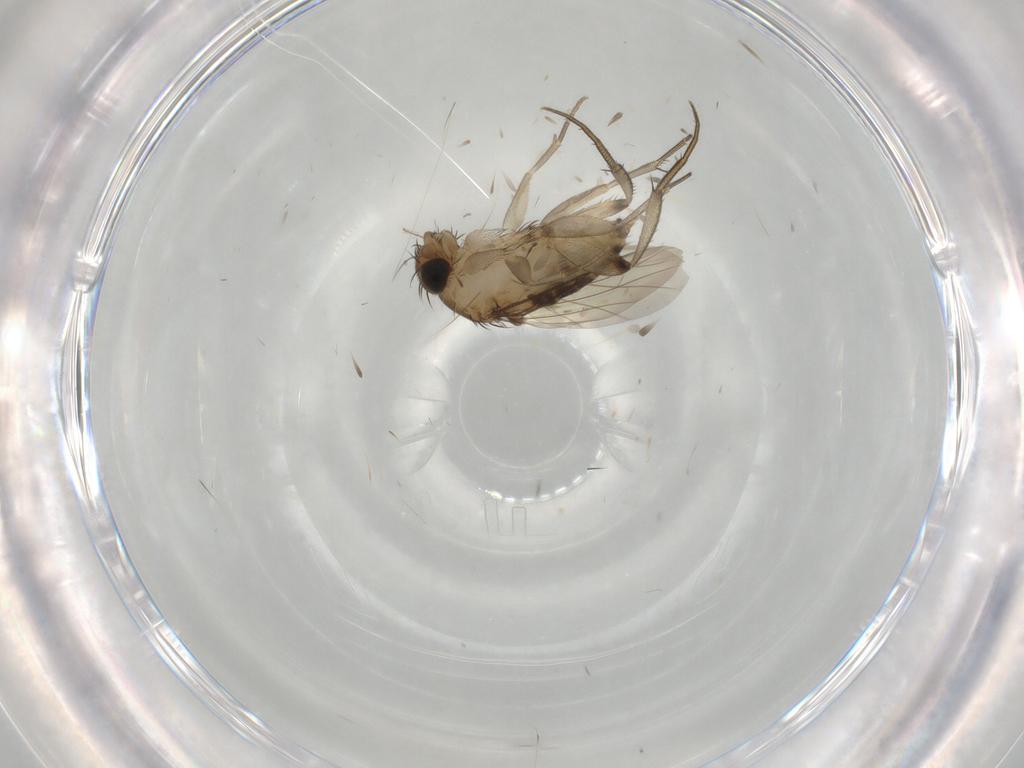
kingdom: Animalia
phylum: Arthropoda
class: Insecta
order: Diptera
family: Phoridae
